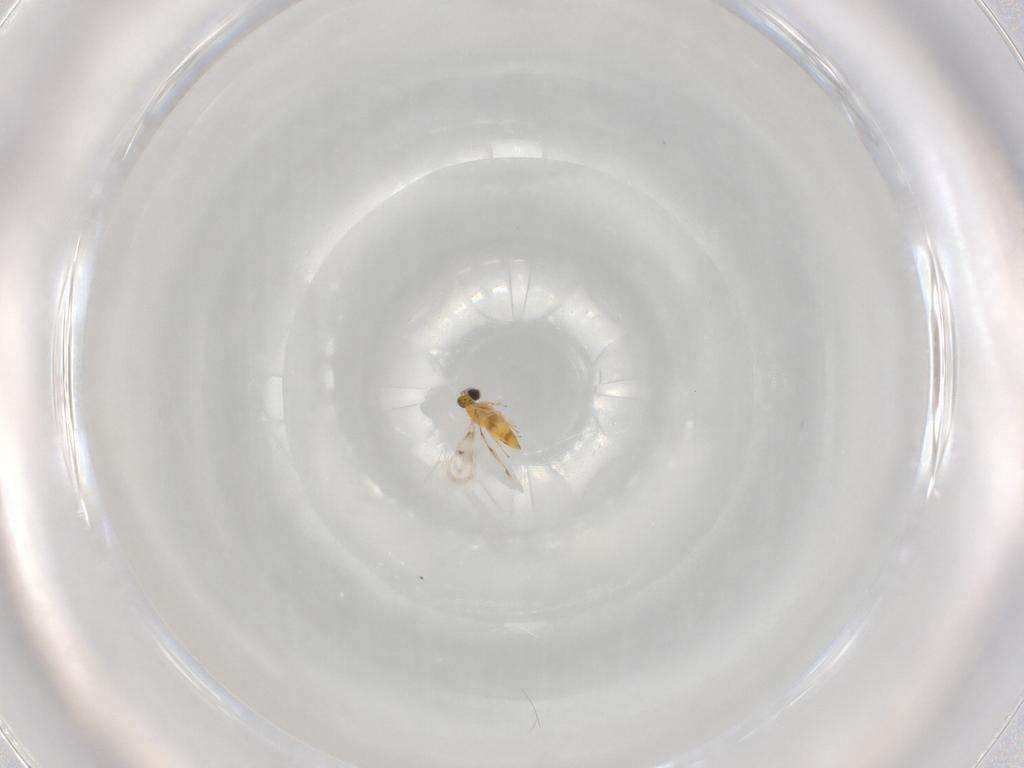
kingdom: Animalia
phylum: Arthropoda
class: Insecta
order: Hymenoptera
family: Trichogrammatidae
